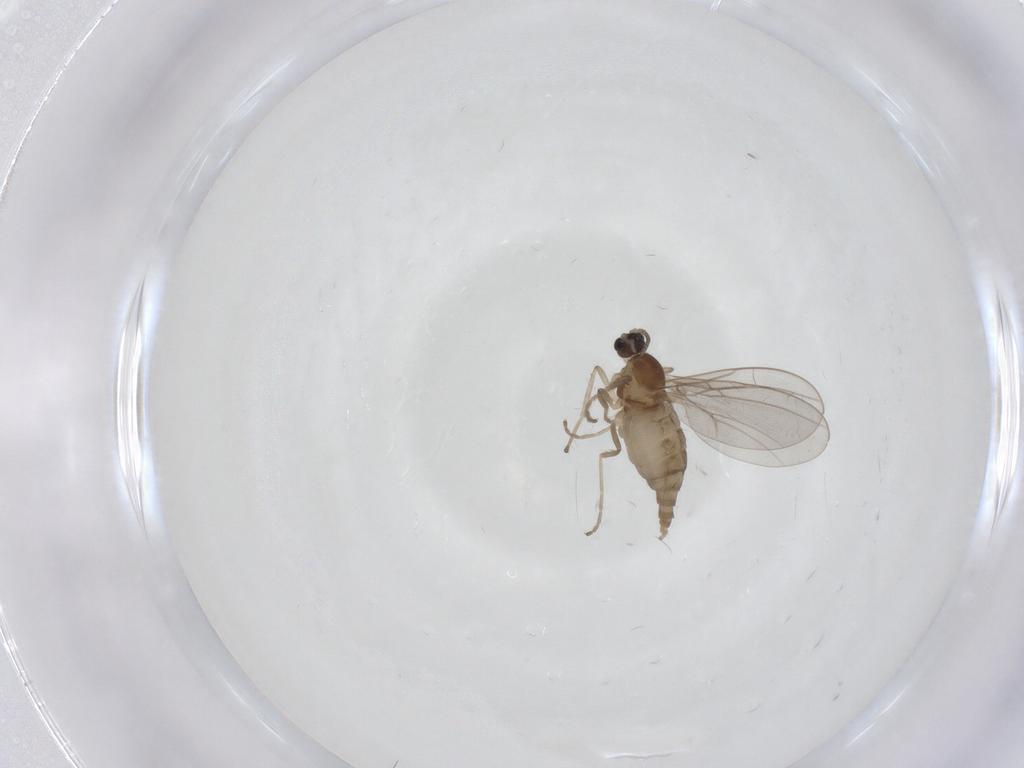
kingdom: Animalia
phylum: Arthropoda
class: Insecta
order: Diptera
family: Cecidomyiidae
